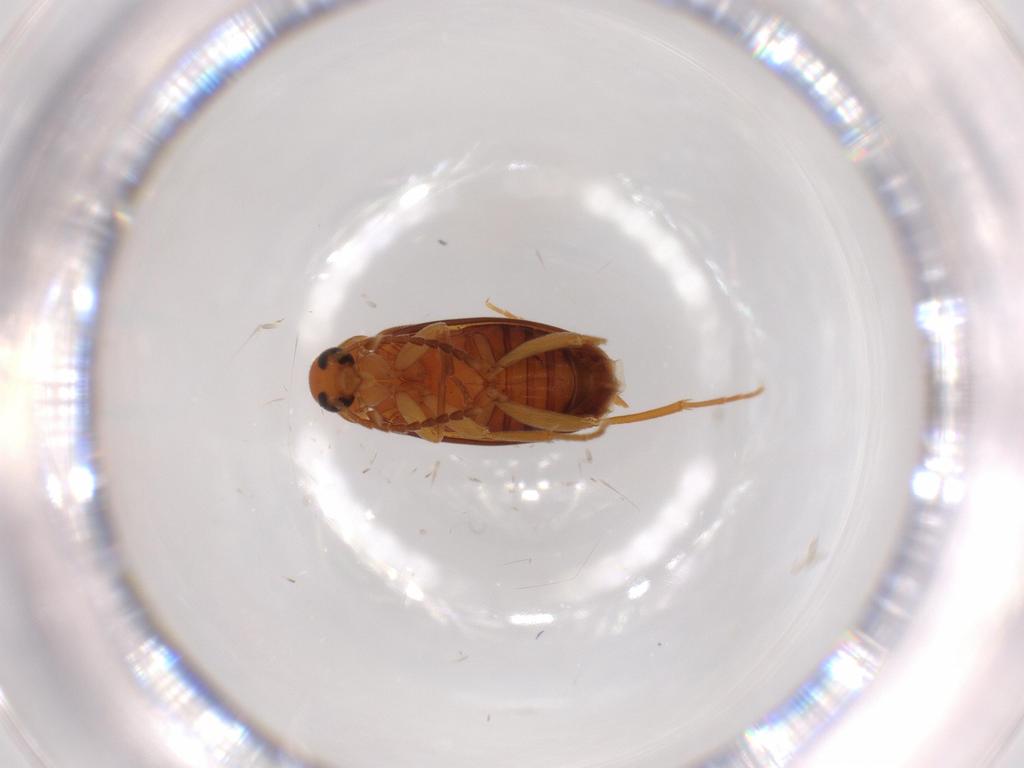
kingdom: Animalia
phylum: Arthropoda
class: Insecta
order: Coleoptera
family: Scraptiidae
